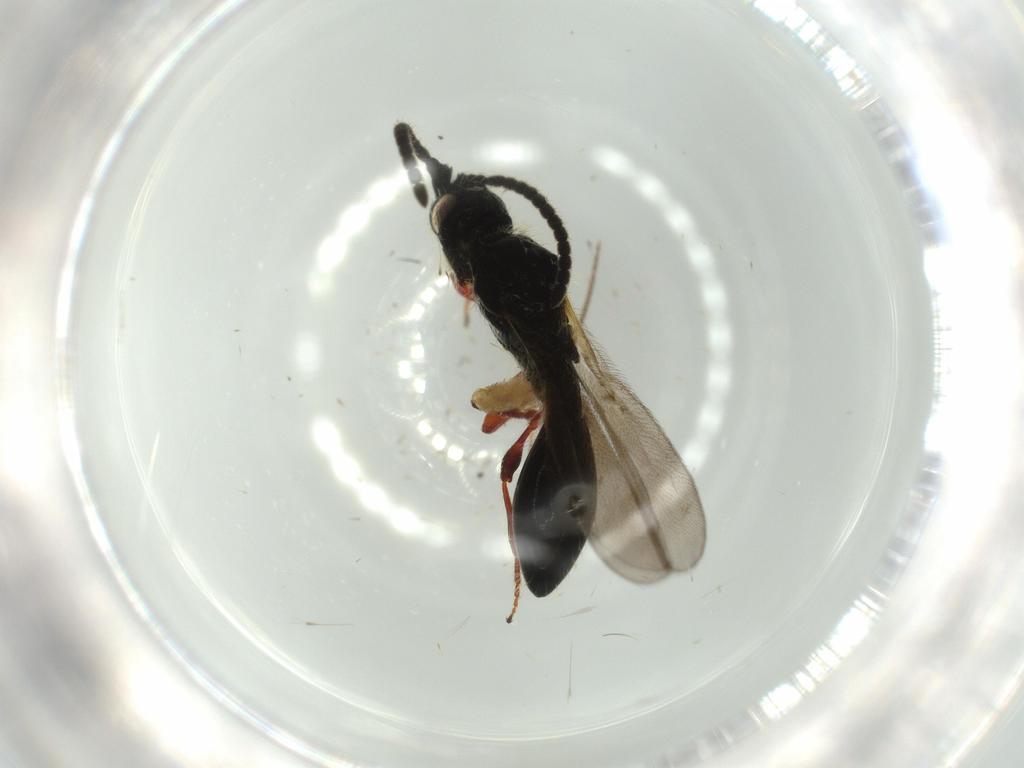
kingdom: Animalia
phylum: Arthropoda
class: Insecta
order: Hymenoptera
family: Diapriidae
